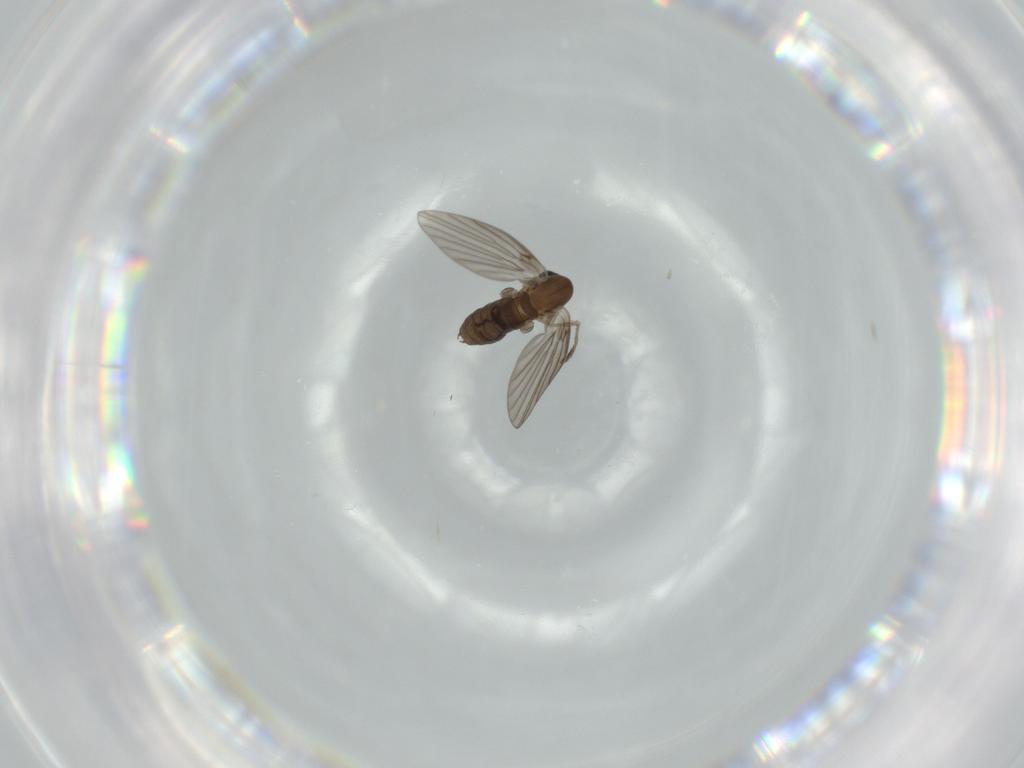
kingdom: Animalia
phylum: Arthropoda
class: Insecta
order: Diptera
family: Psychodidae
